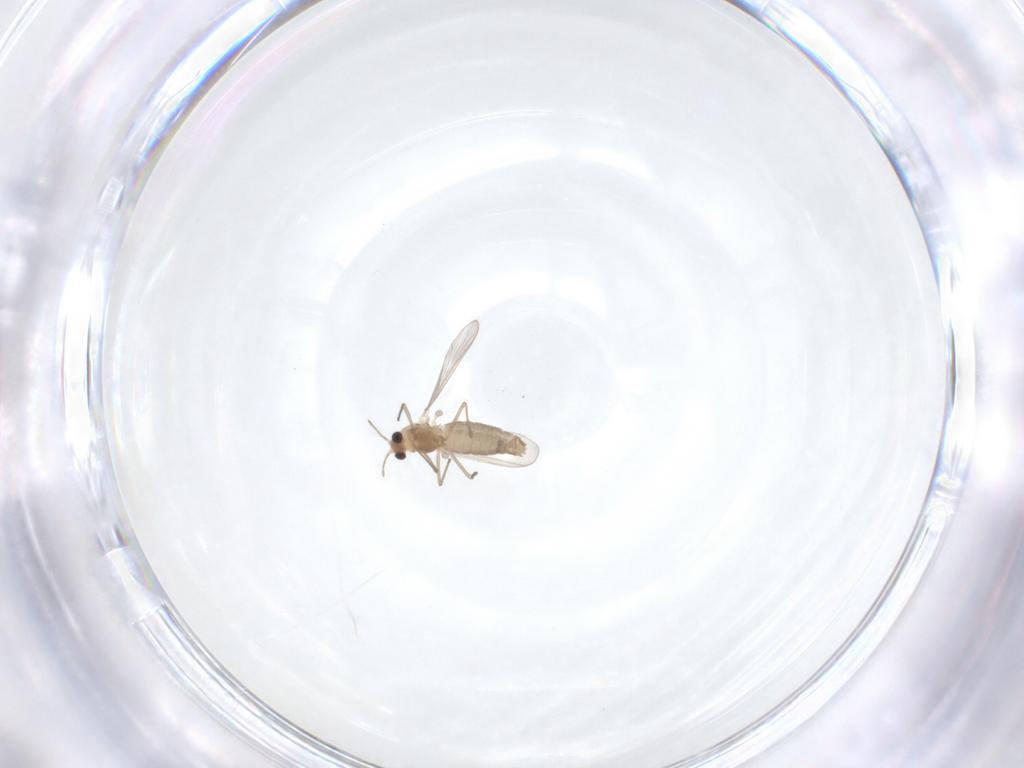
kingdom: Animalia
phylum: Arthropoda
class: Insecta
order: Diptera
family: Chironomidae
